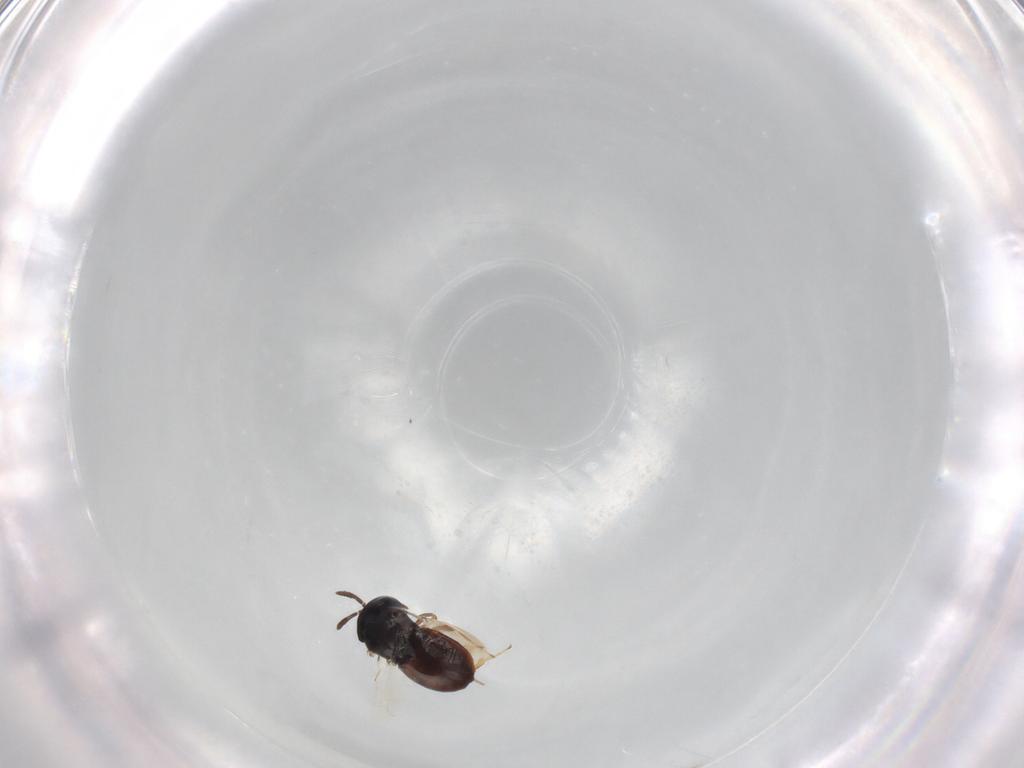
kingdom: Animalia
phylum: Arthropoda
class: Insecta
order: Hymenoptera
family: Scelionidae
